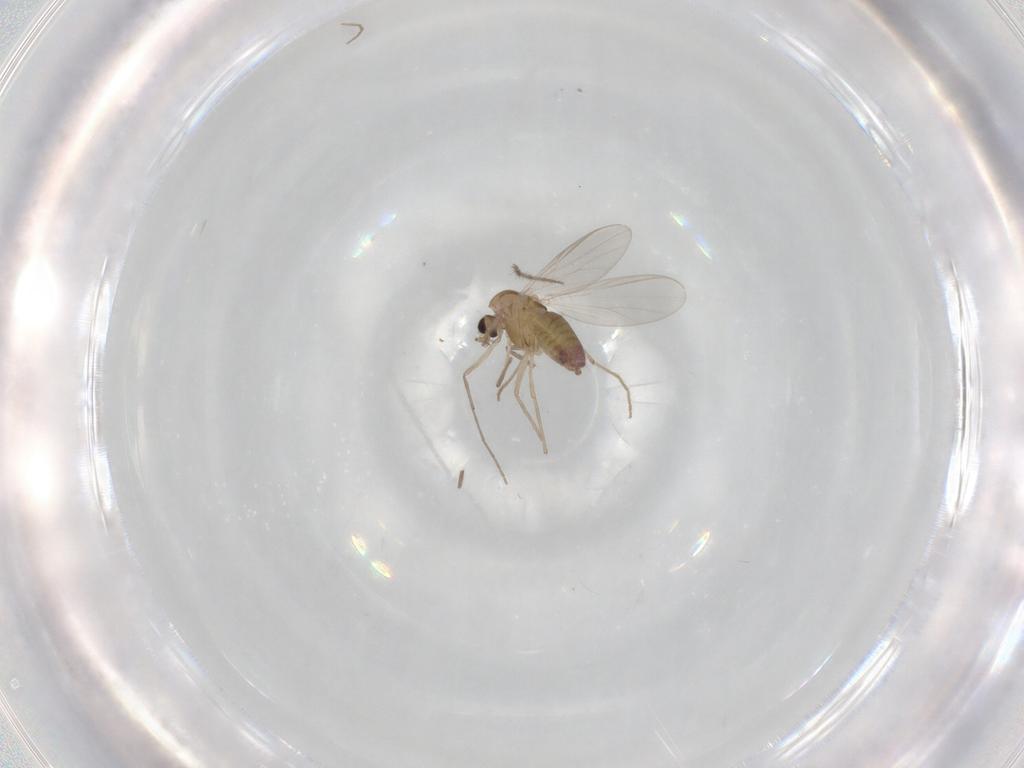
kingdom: Animalia
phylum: Arthropoda
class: Insecta
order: Diptera
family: Chironomidae
